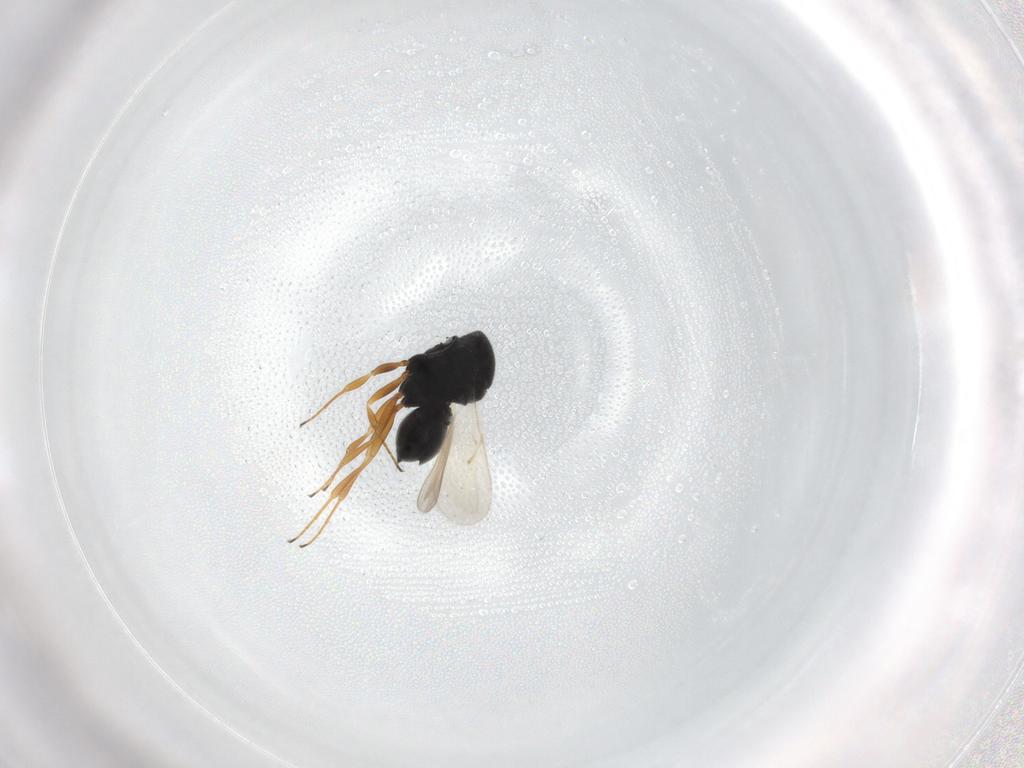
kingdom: Animalia
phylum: Arthropoda
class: Insecta
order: Hymenoptera
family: Scelionidae
